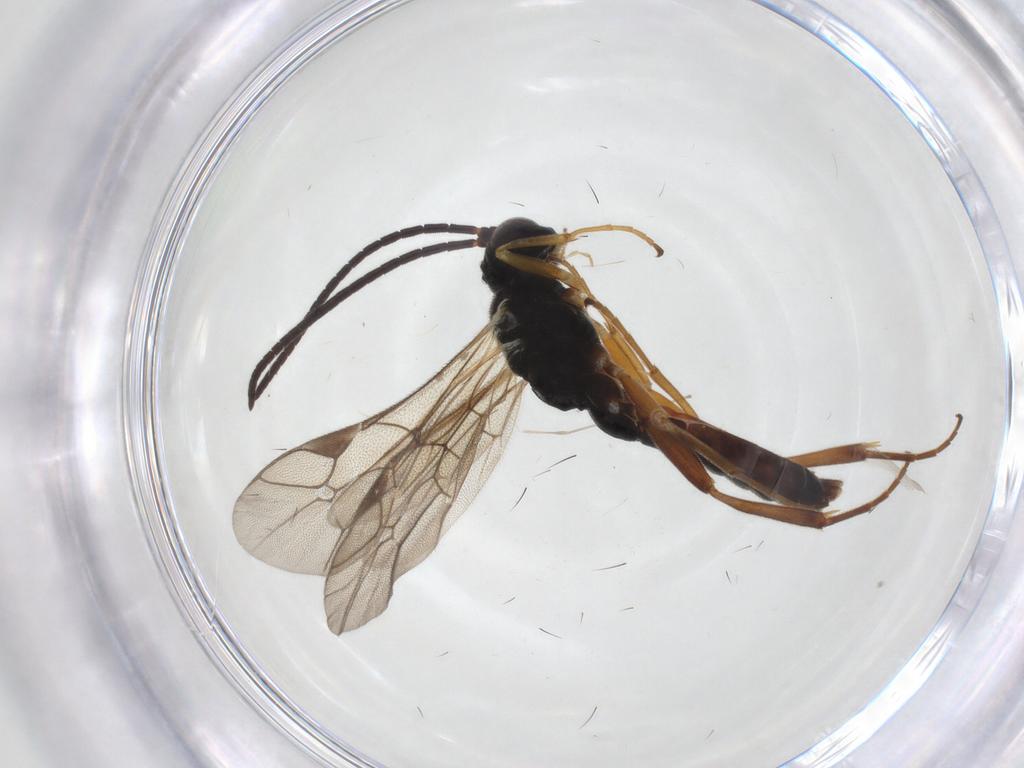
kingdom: Animalia
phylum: Arthropoda
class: Insecta
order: Hymenoptera
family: Ichneumonidae
